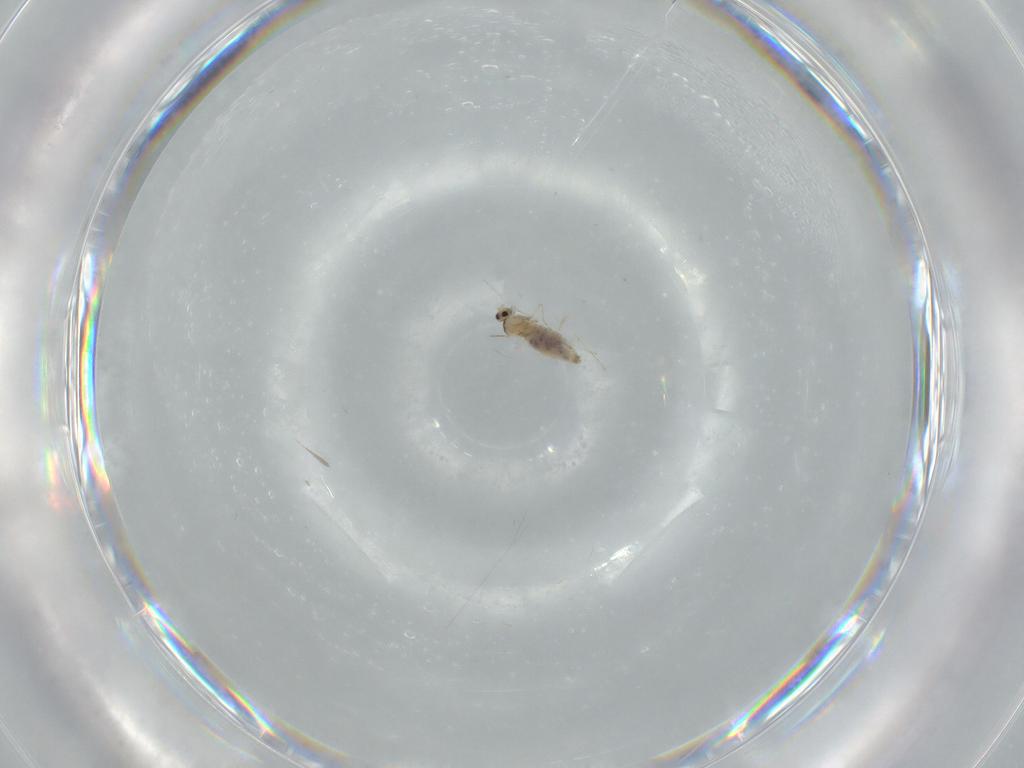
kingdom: Animalia
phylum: Arthropoda
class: Insecta
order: Diptera
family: Cecidomyiidae
